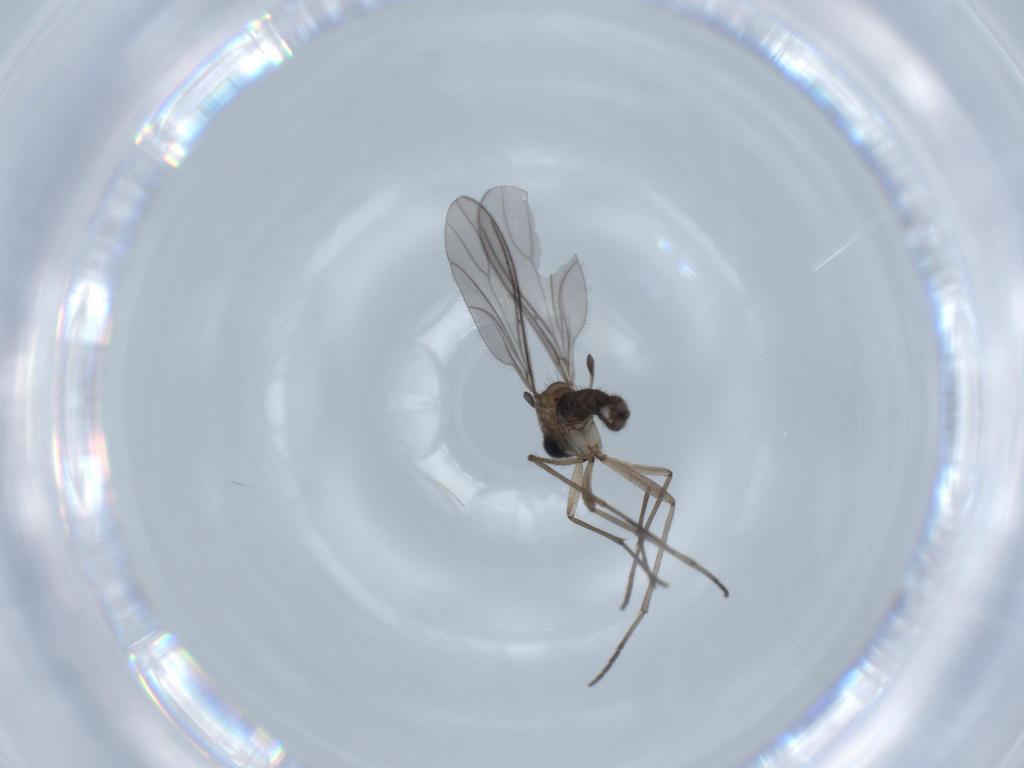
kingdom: Animalia
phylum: Arthropoda
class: Insecta
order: Diptera
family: Sciaridae
